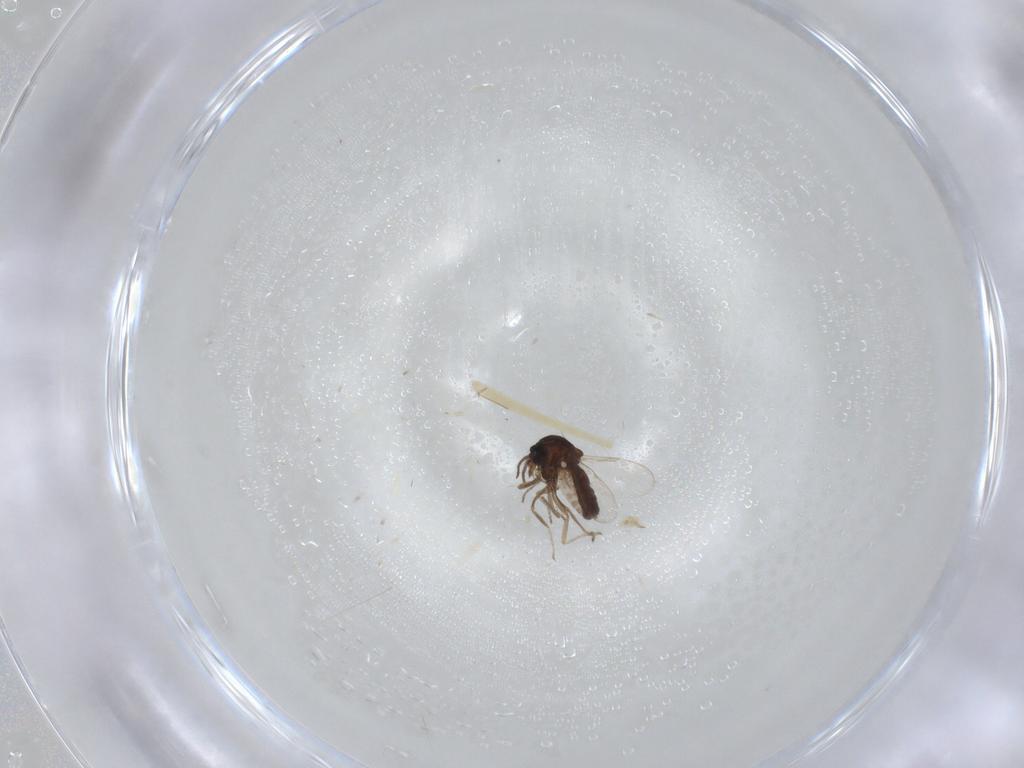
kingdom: Animalia
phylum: Arthropoda
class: Insecta
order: Diptera
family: Ceratopogonidae
